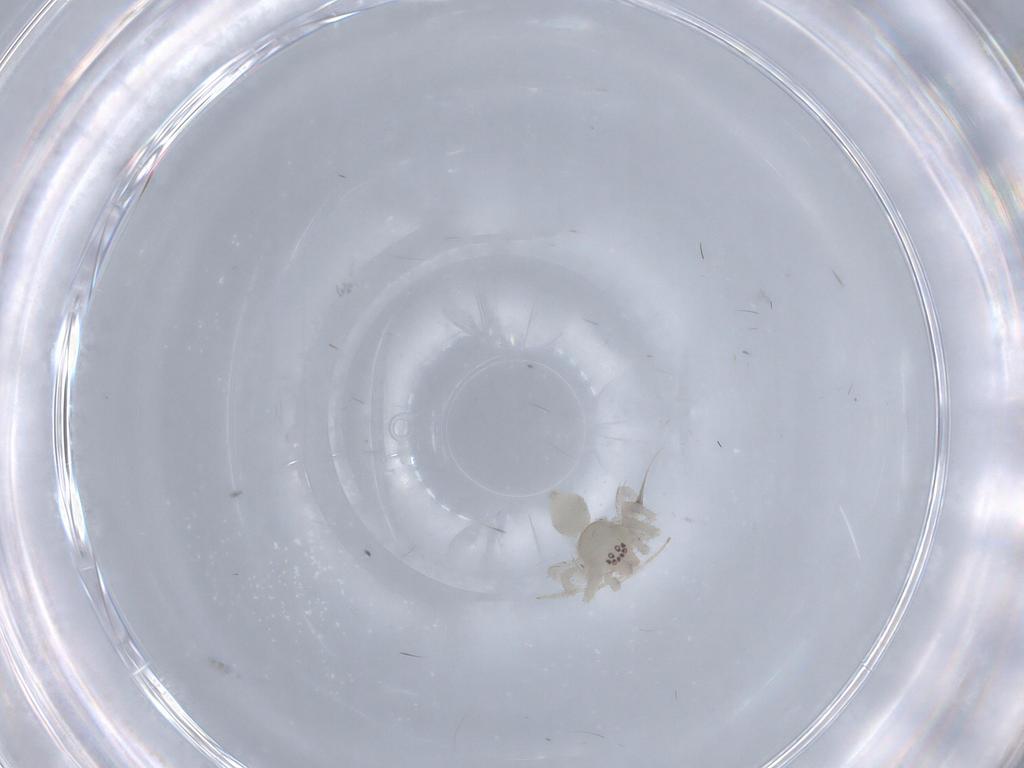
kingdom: Animalia
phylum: Arthropoda
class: Arachnida
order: Araneae
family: Anyphaenidae
